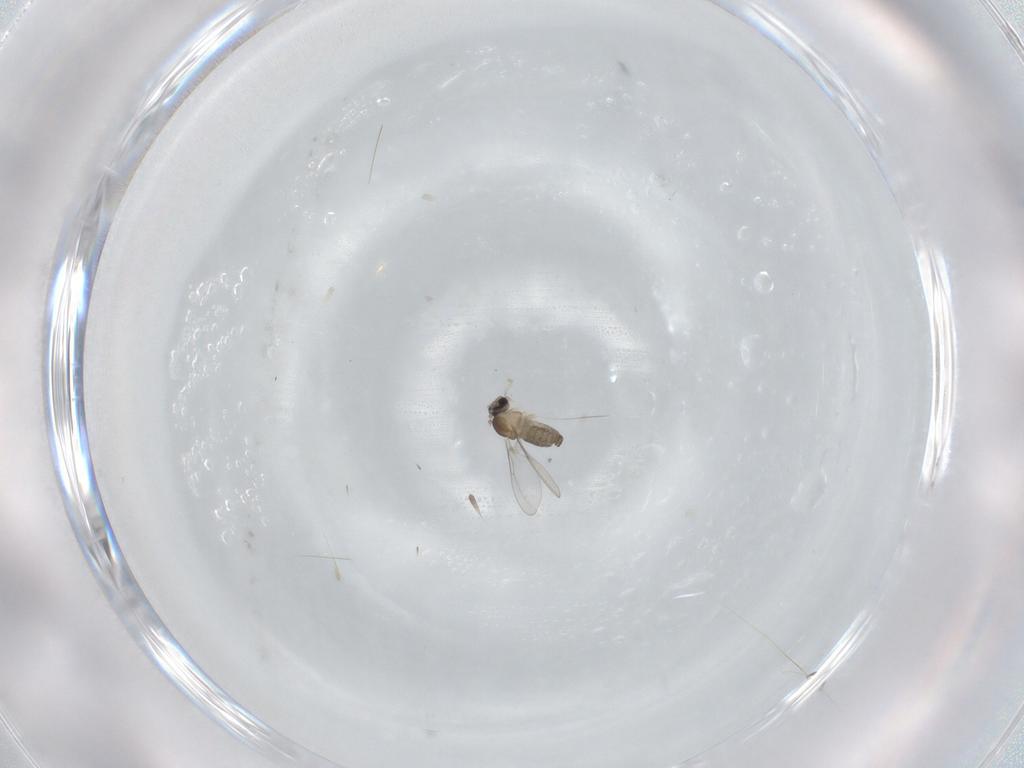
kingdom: Animalia
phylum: Arthropoda
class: Insecta
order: Diptera
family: Cecidomyiidae
